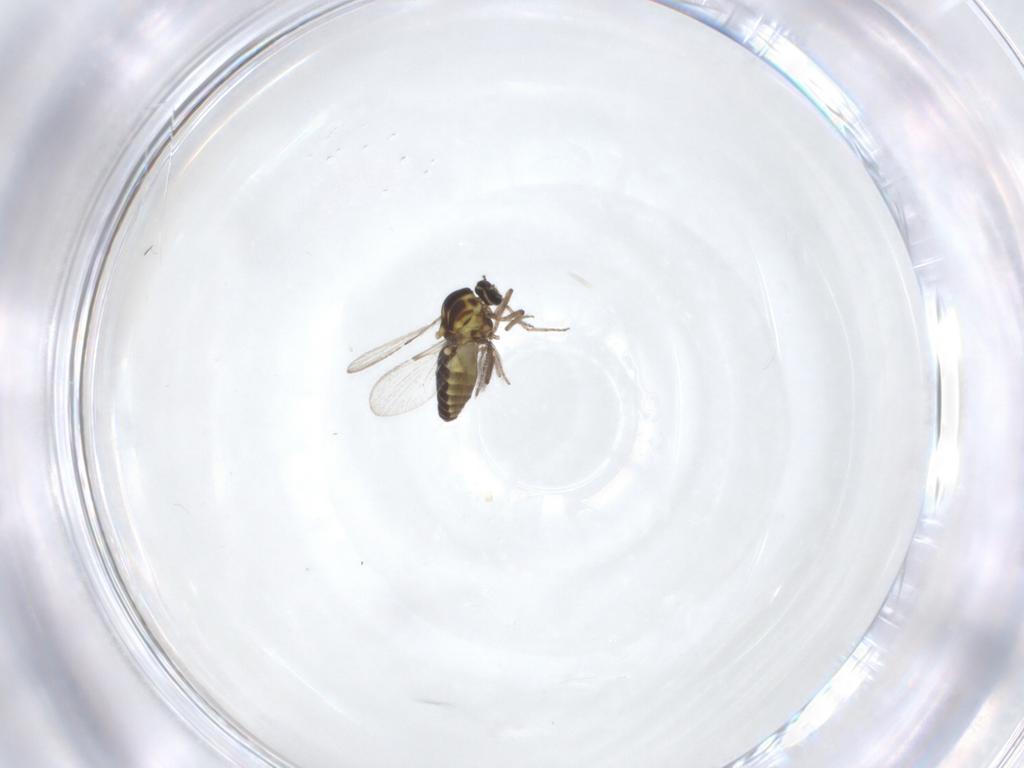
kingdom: Animalia
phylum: Arthropoda
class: Insecta
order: Diptera
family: Ceratopogonidae
